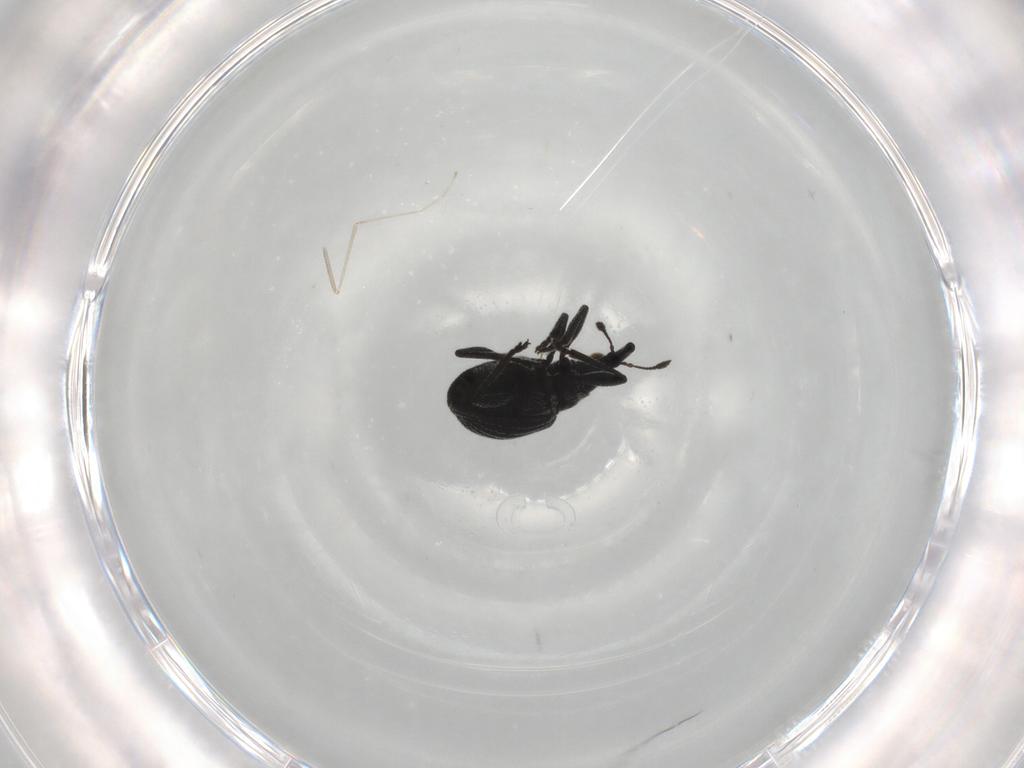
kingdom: Animalia
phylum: Arthropoda
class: Insecta
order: Coleoptera
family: Brentidae
